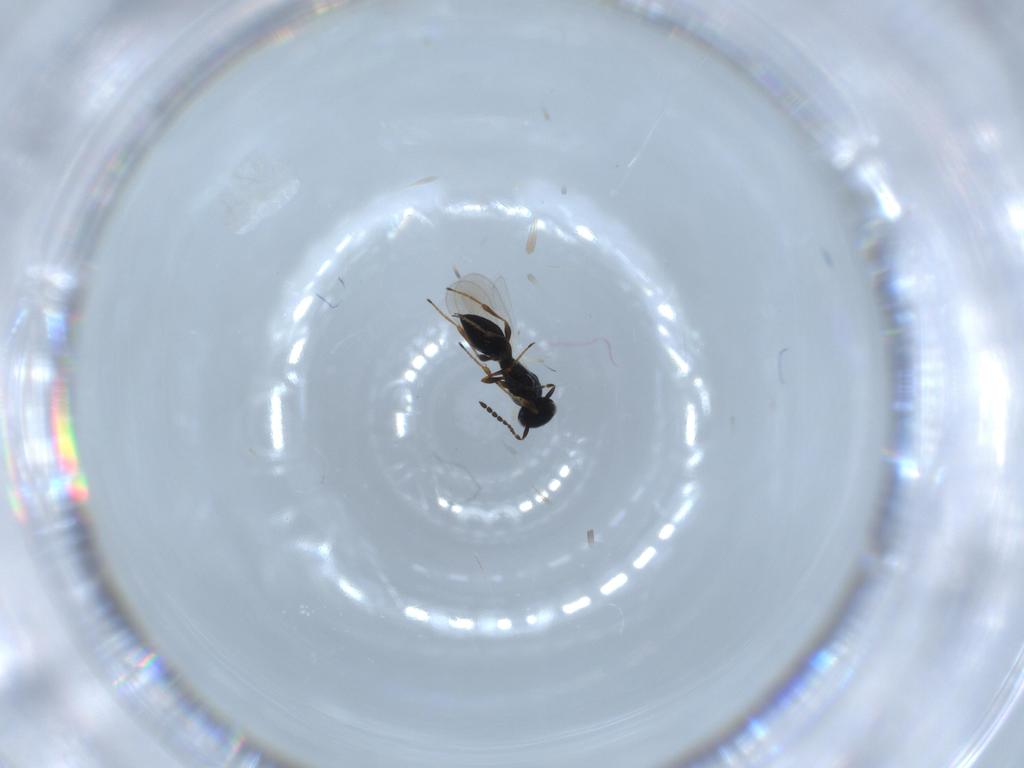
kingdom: Animalia
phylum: Arthropoda
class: Insecta
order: Hymenoptera
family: Platygastridae
